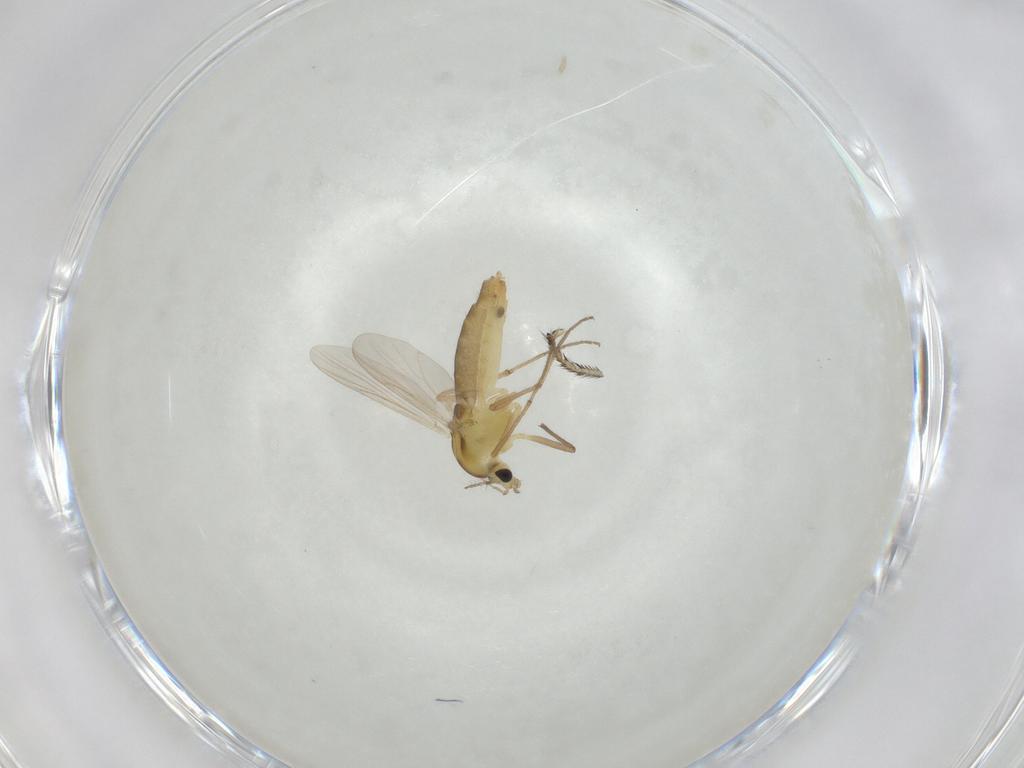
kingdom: Animalia
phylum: Arthropoda
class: Insecta
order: Diptera
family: Chironomidae
